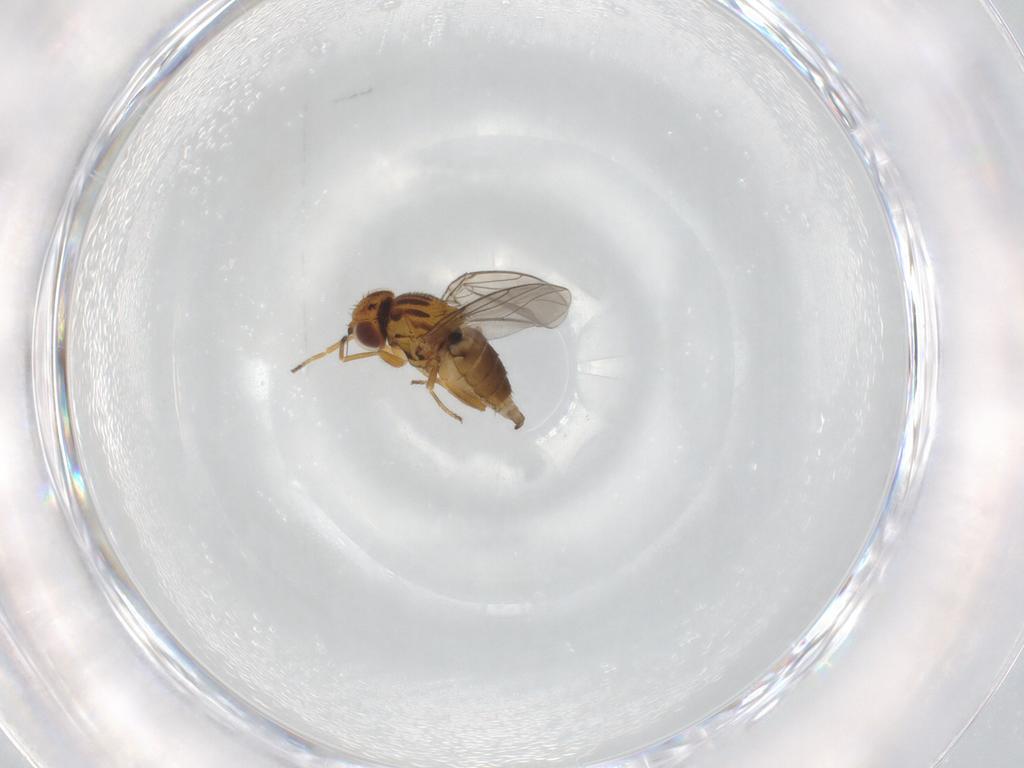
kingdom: Animalia
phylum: Arthropoda
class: Insecta
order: Diptera
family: Chloropidae
